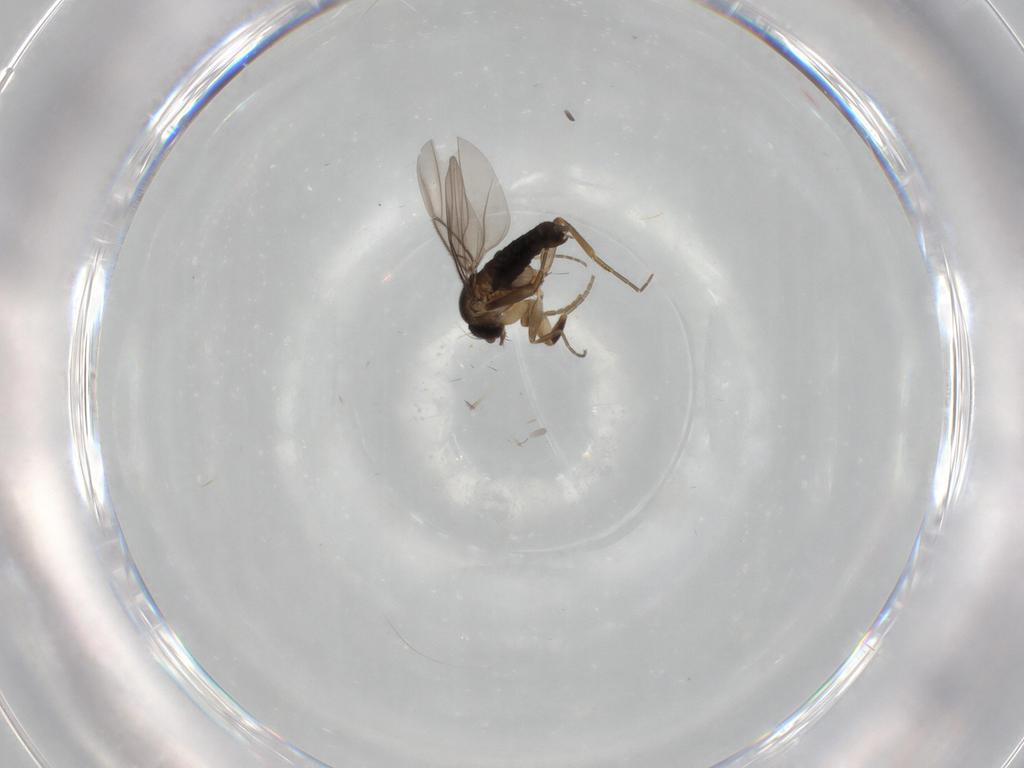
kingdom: Animalia
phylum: Arthropoda
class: Insecta
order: Diptera
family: Phoridae
